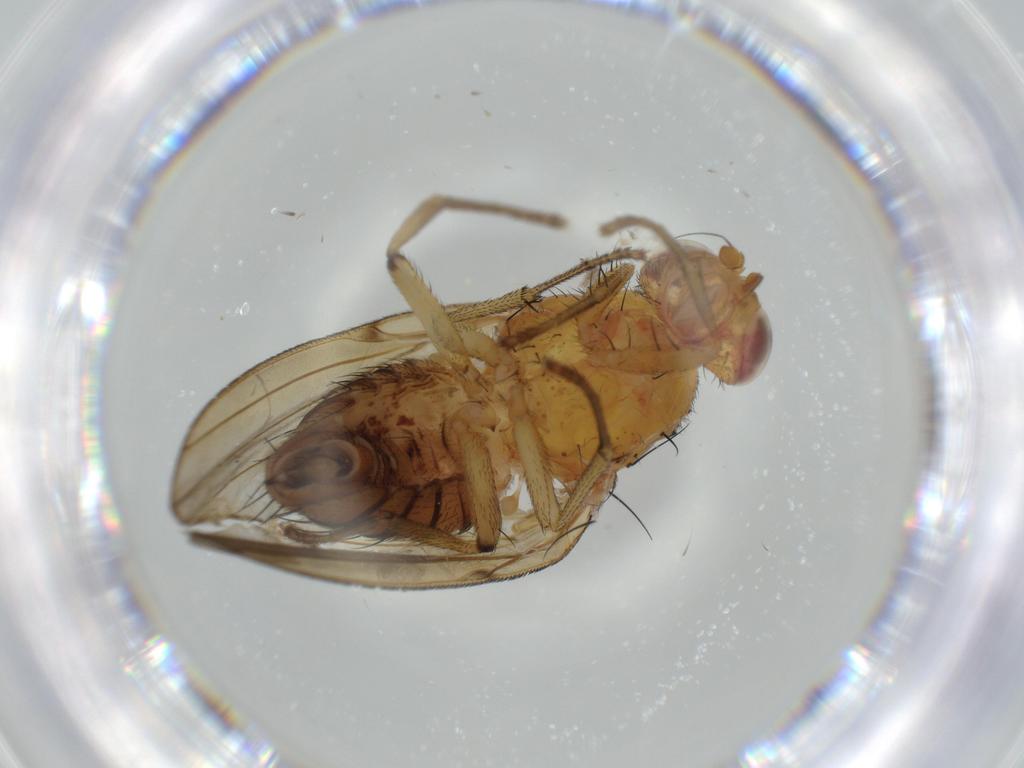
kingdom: Animalia
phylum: Arthropoda
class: Insecta
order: Diptera
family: Cecidomyiidae
